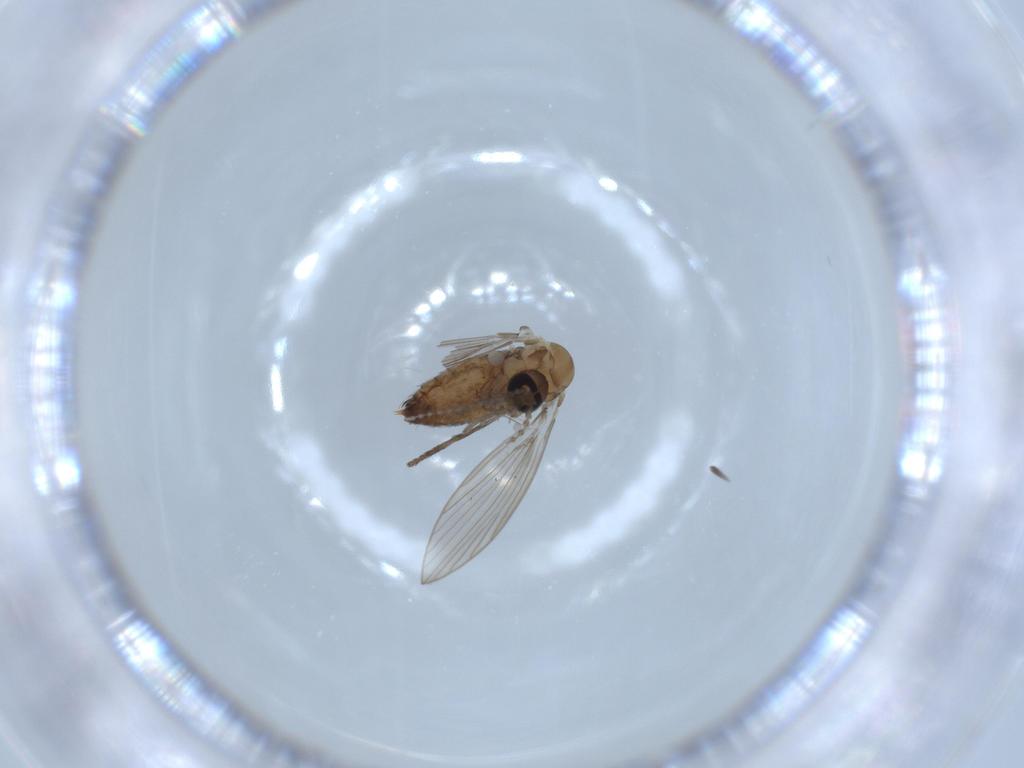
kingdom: Animalia
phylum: Arthropoda
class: Insecta
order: Diptera
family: Psychodidae
